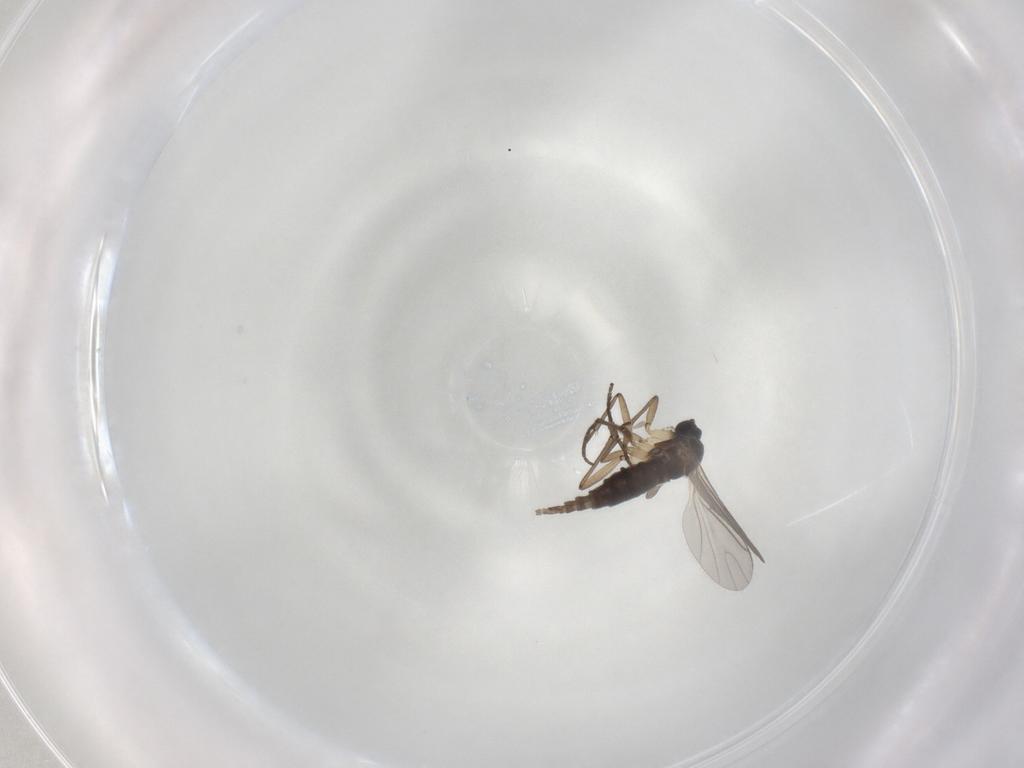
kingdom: Animalia
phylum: Arthropoda
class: Insecta
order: Diptera
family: Sciaridae
